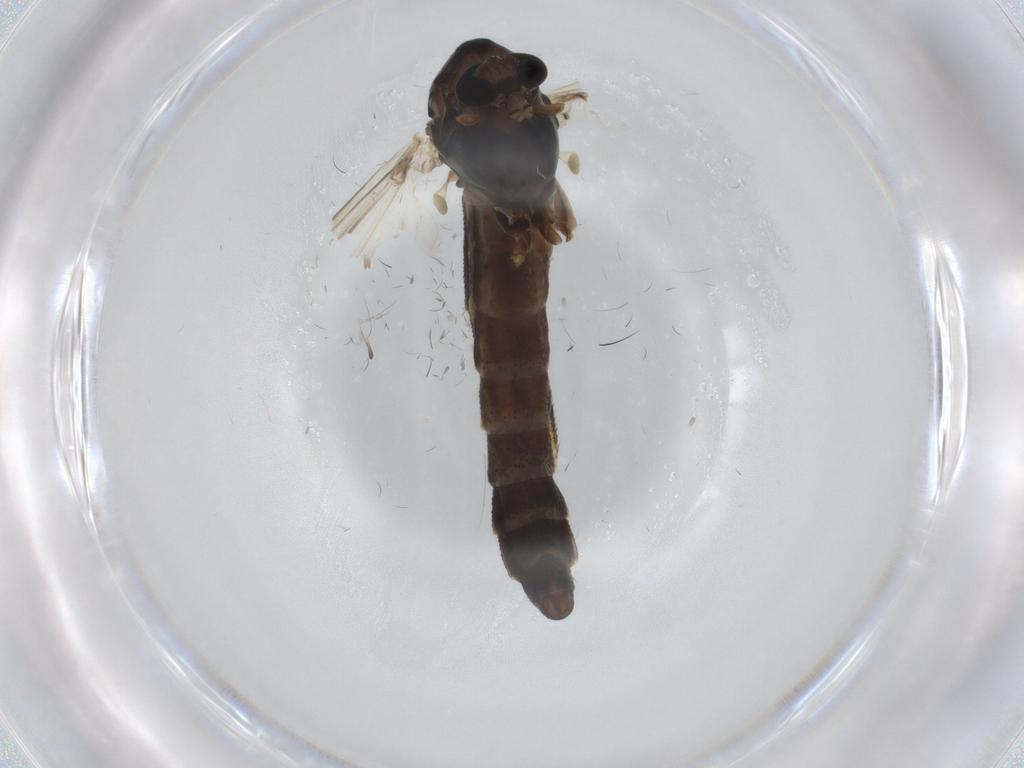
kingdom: Animalia
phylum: Arthropoda
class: Insecta
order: Diptera
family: Chironomidae
